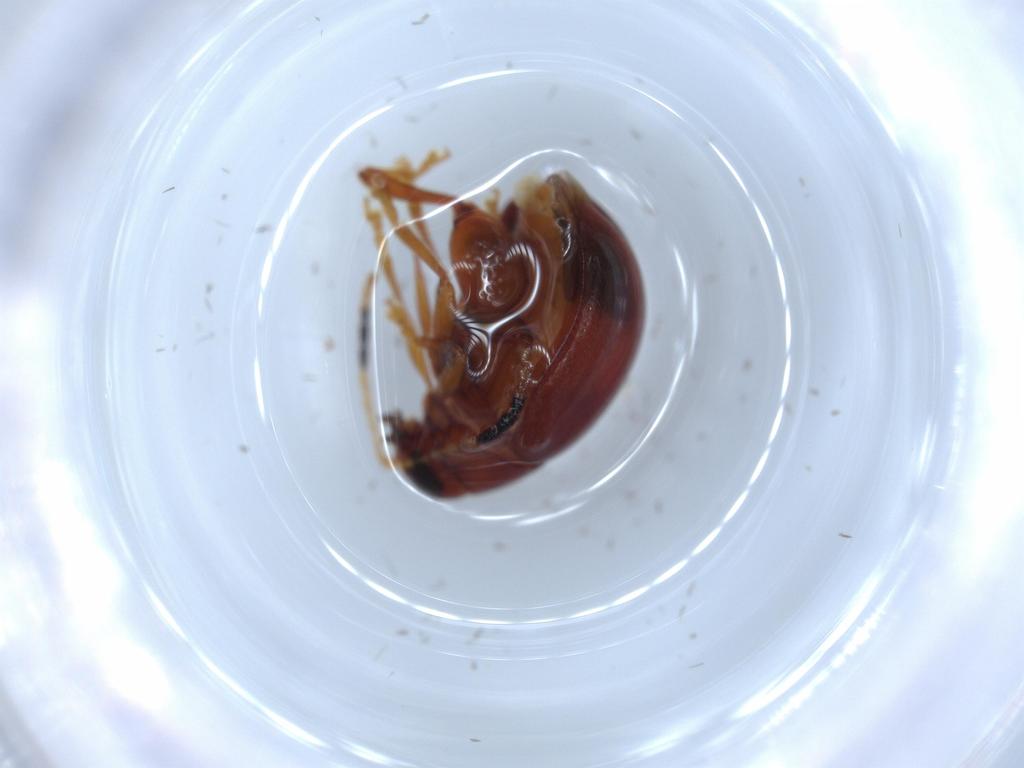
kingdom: Animalia
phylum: Arthropoda
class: Insecta
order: Coleoptera
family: Chrysomelidae
